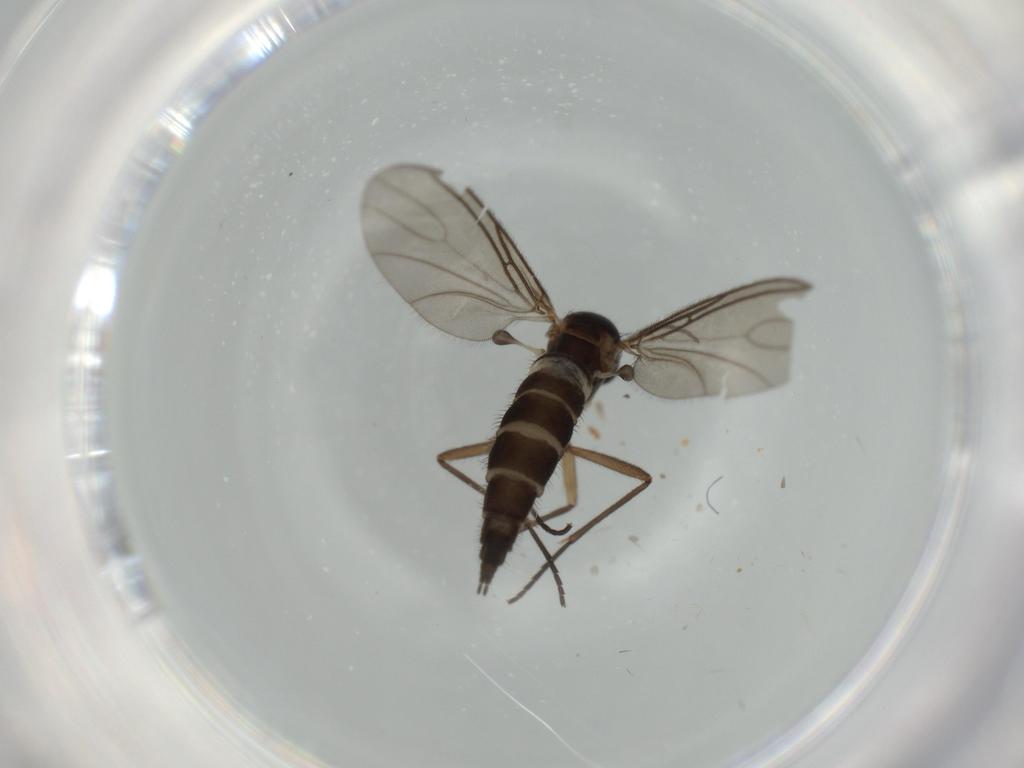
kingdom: Animalia
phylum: Arthropoda
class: Insecta
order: Diptera
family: Sciaridae
